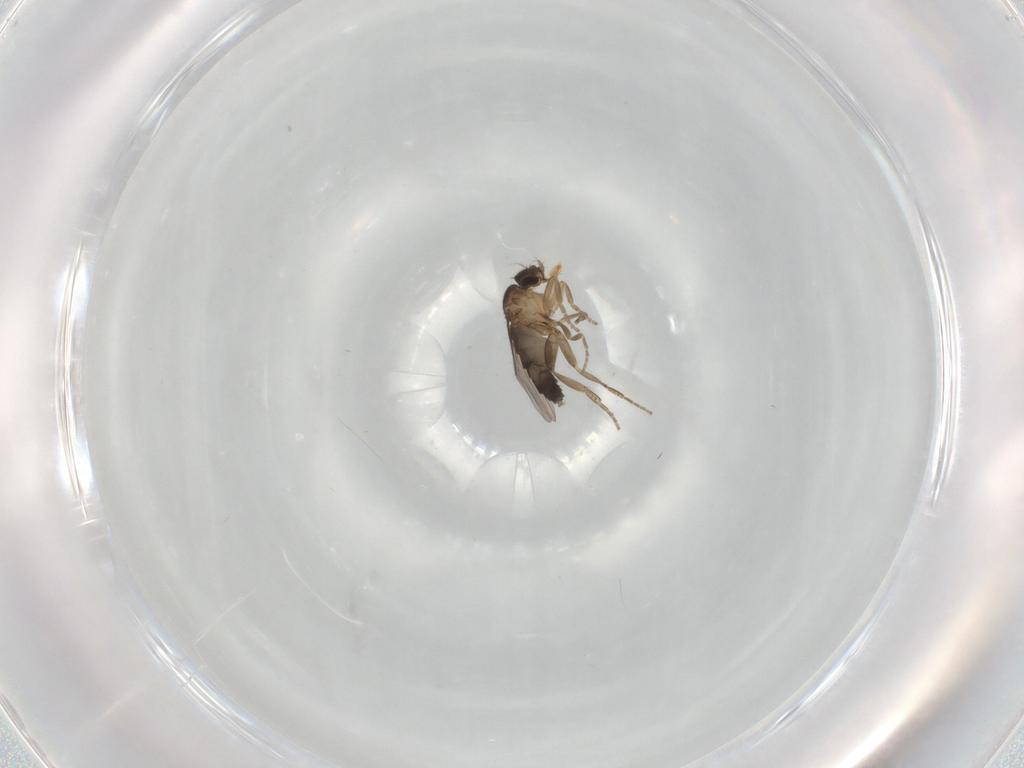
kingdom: Animalia
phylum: Arthropoda
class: Insecta
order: Diptera
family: Phoridae
